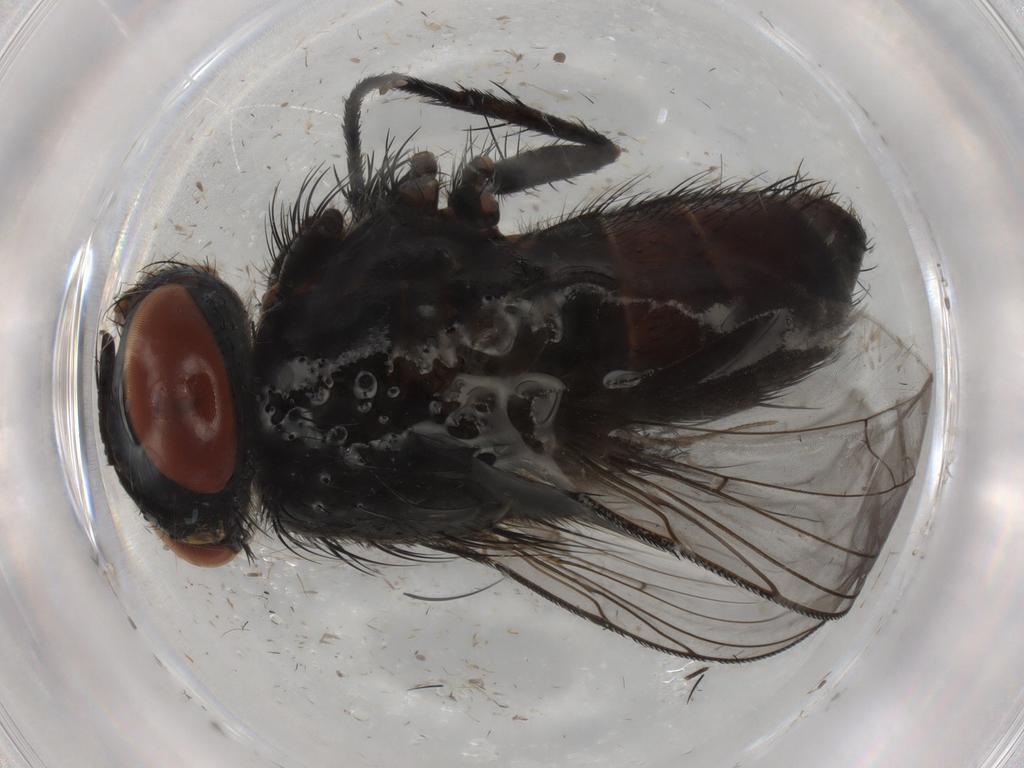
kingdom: Animalia
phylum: Arthropoda
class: Insecta
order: Diptera
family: Tachinidae
